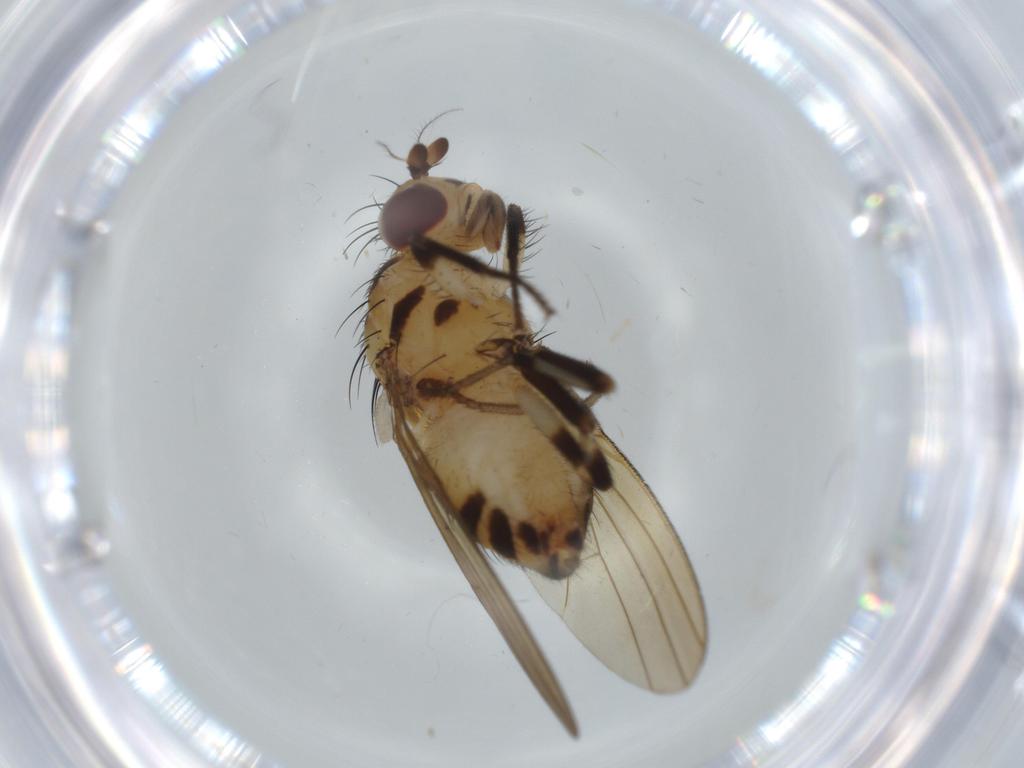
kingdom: Animalia
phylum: Arthropoda
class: Insecta
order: Diptera
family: Lauxaniidae
